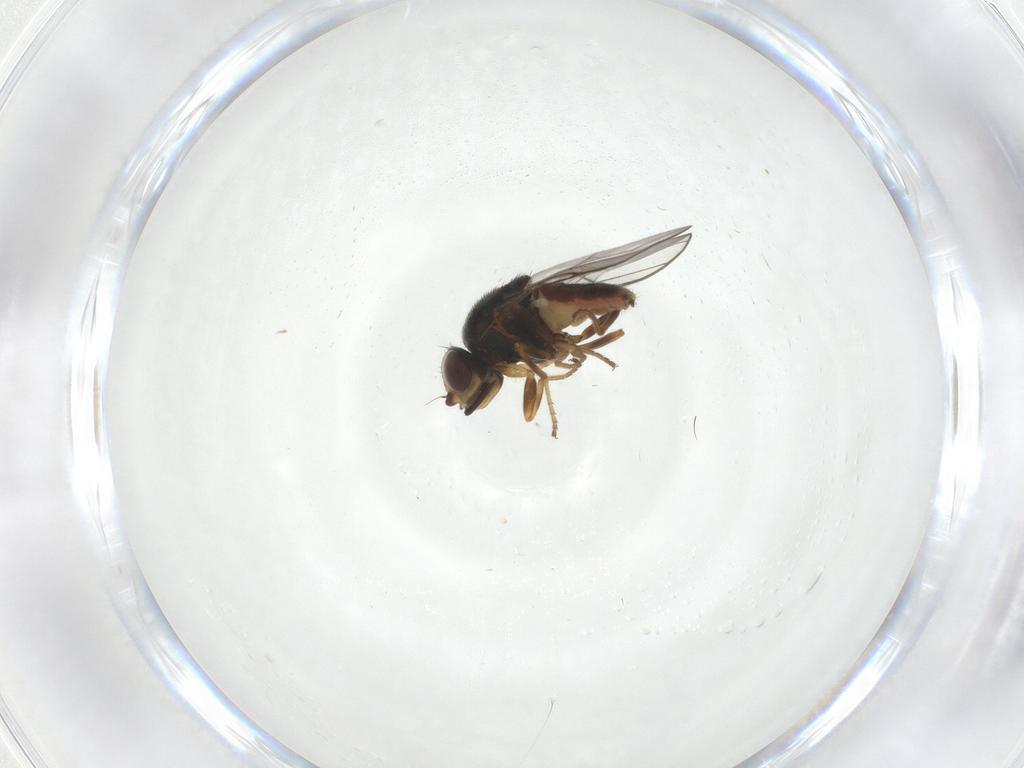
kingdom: Animalia
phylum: Arthropoda
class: Insecta
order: Diptera
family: Chloropidae
